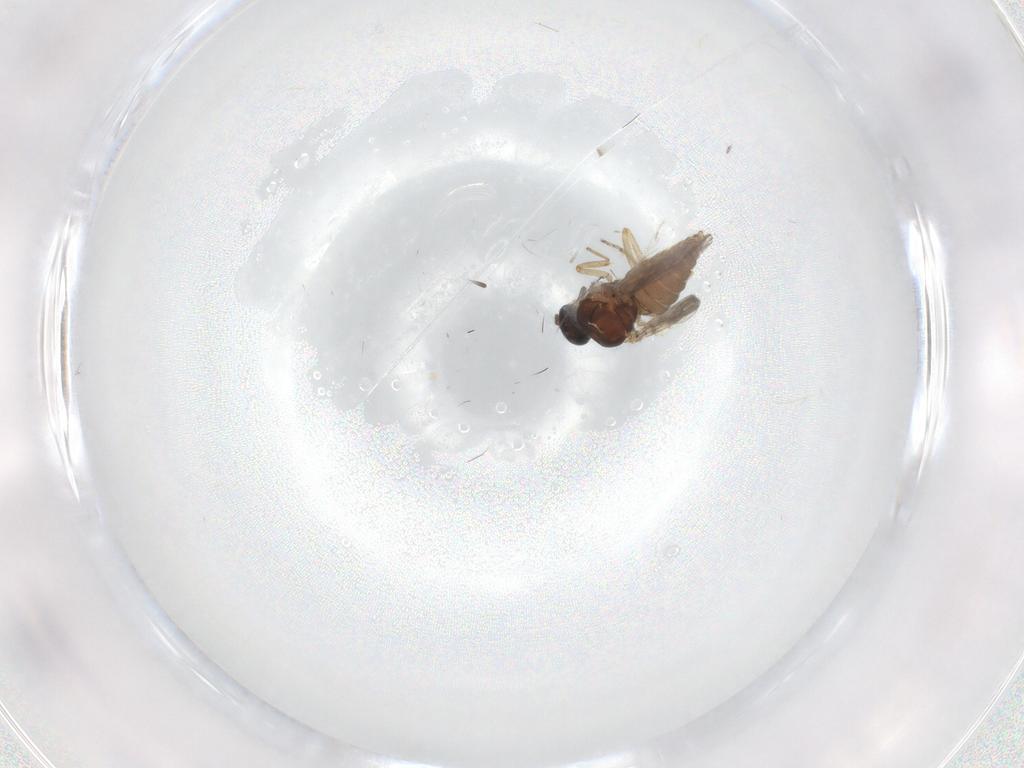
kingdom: Animalia
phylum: Arthropoda
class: Insecta
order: Diptera
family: Ceratopogonidae
